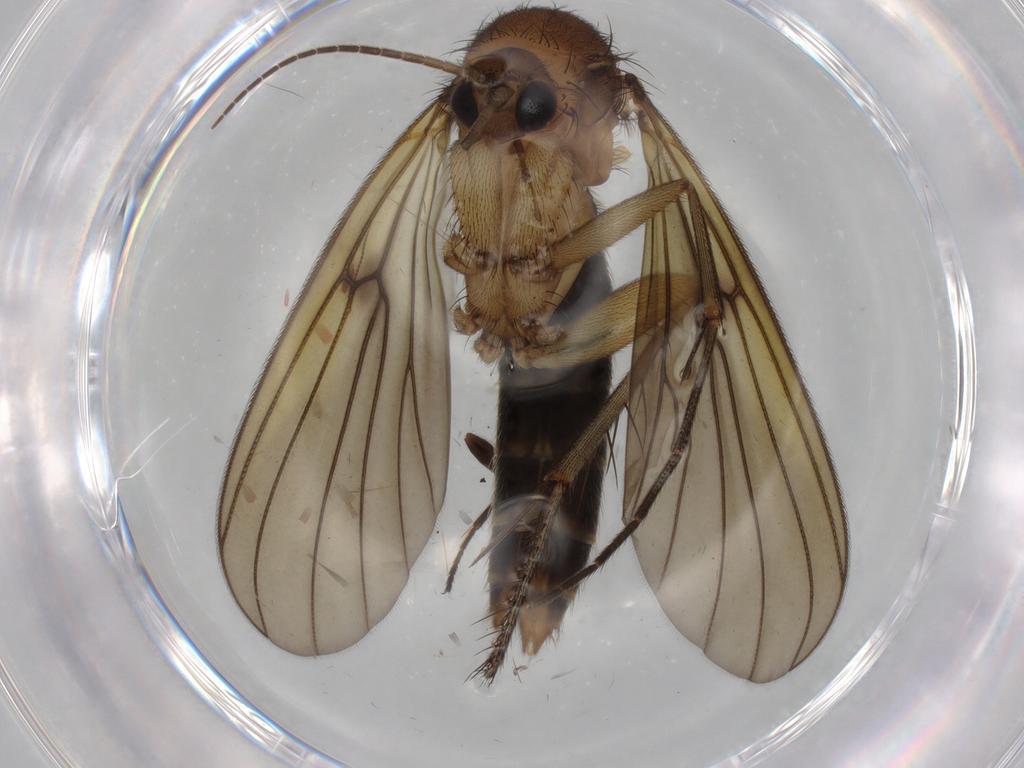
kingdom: Animalia
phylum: Arthropoda
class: Insecta
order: Diptera
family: Mycetophilidae
